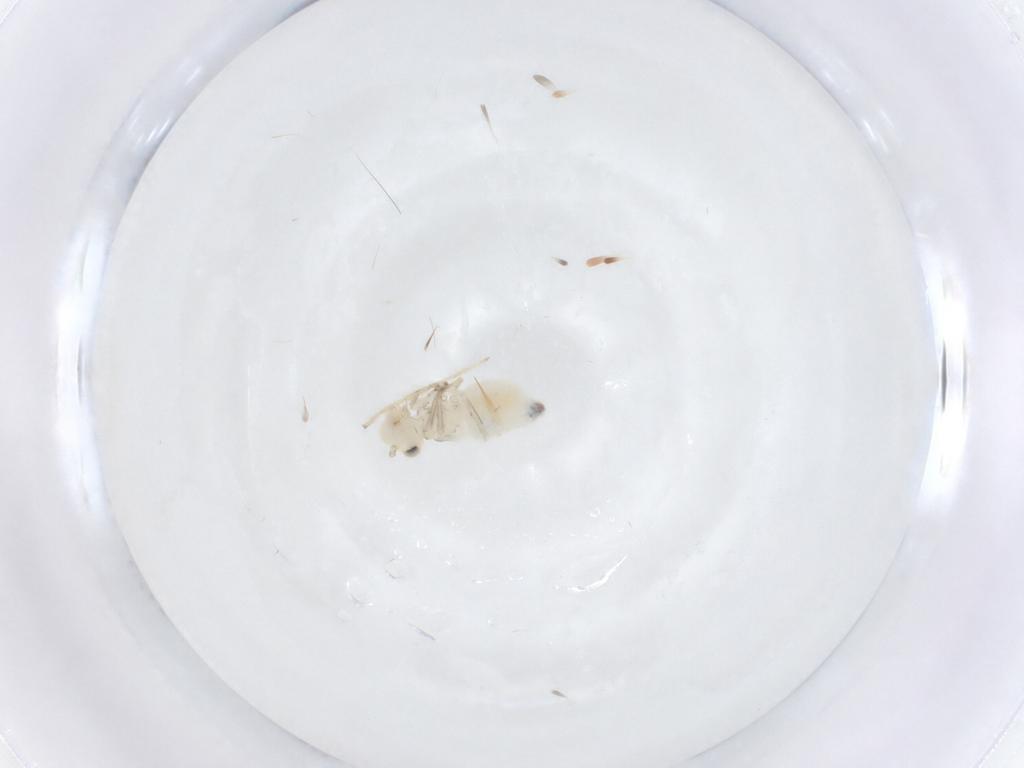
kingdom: Animalia
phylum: Arthropoda
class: Insecta
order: Psocodea
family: Caeciliusidae
